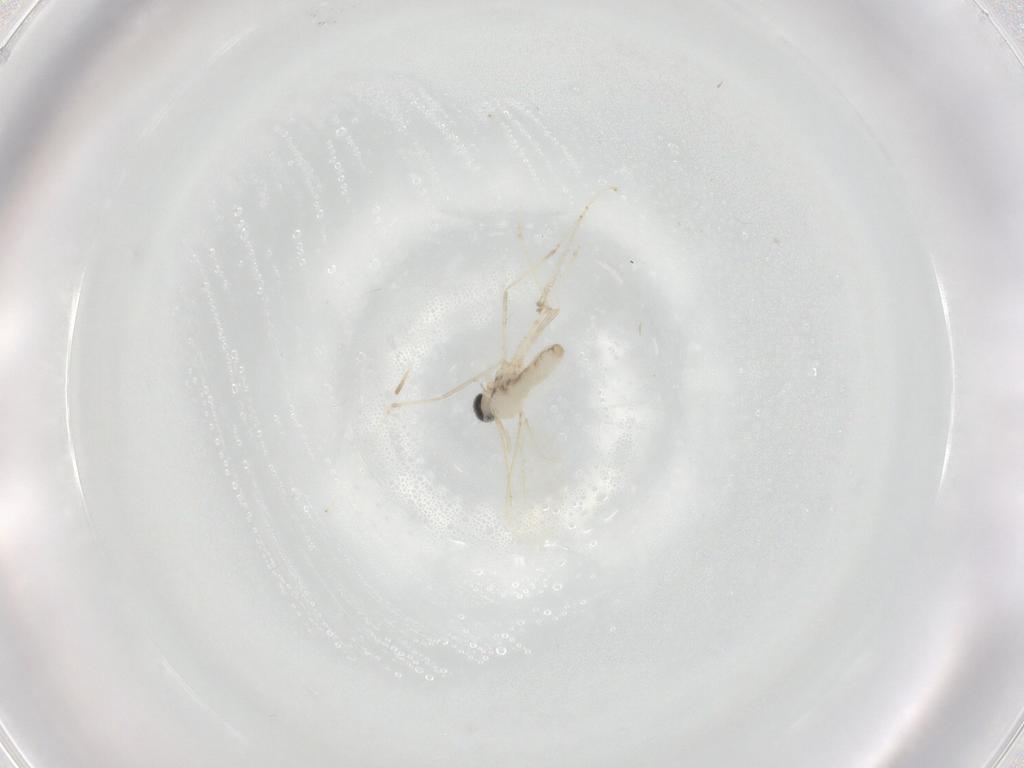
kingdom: Animalia
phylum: Arthropoda
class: Insecta
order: Diptera
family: Cecidomyiidae
